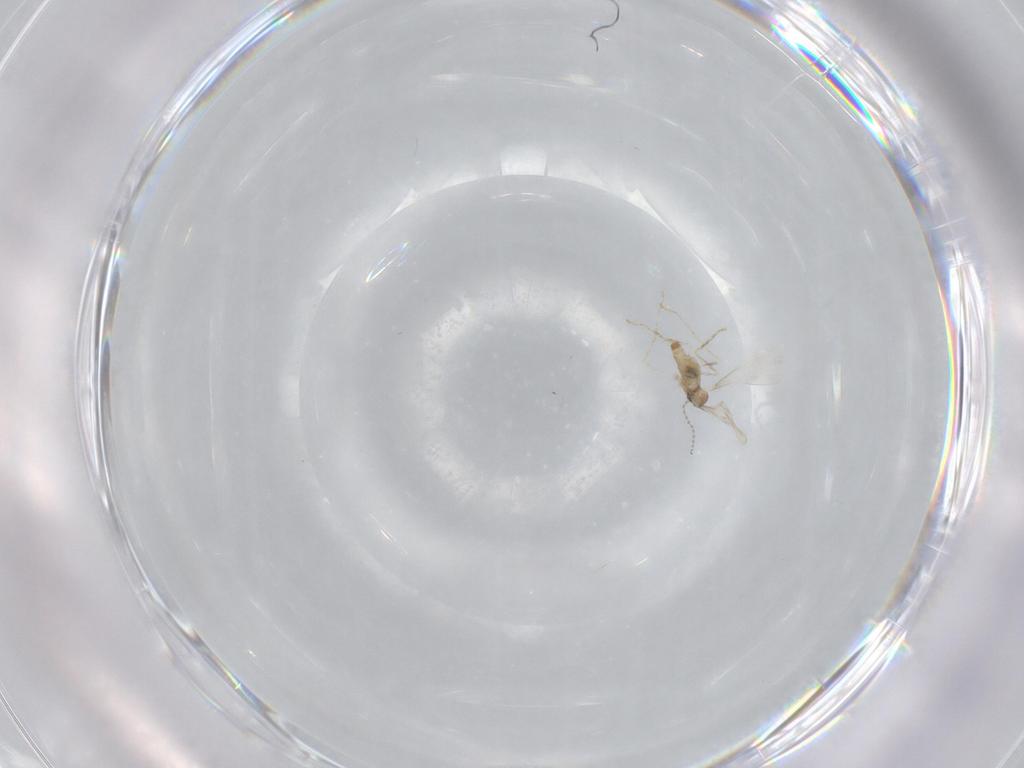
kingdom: Animalia
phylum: Arthropoda
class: Insecta
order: Diptera
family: Cecidomyiidae
